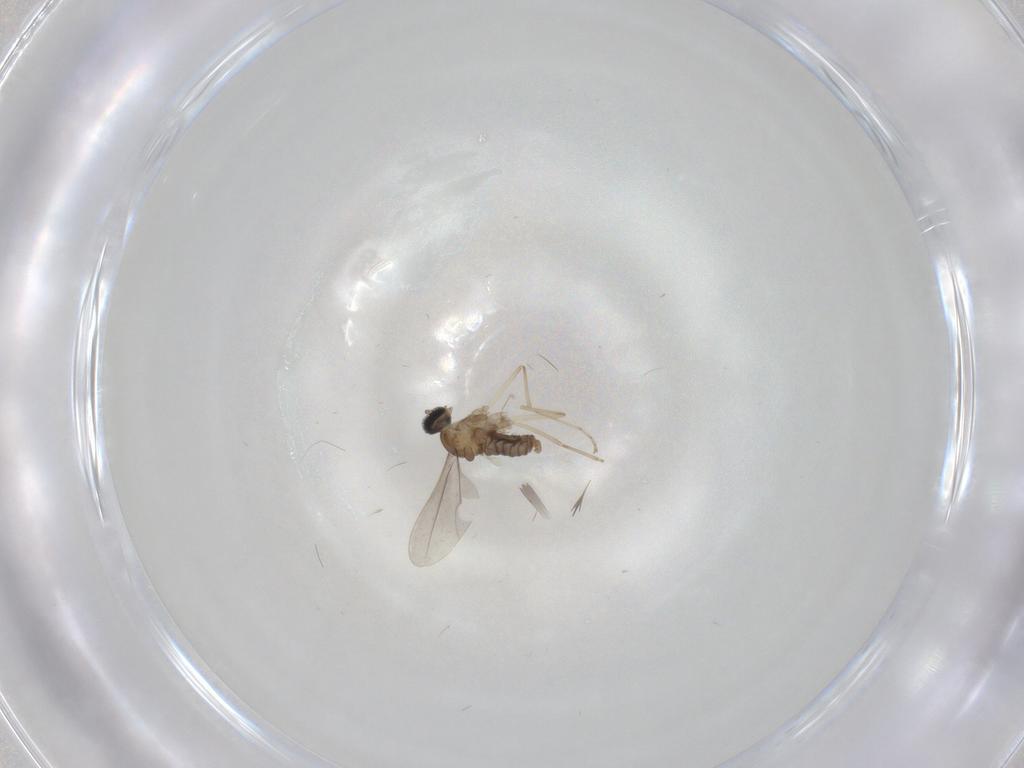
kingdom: Animalia
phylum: Arthropoda
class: Insecta
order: Diptera
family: Cecidomyiidae
